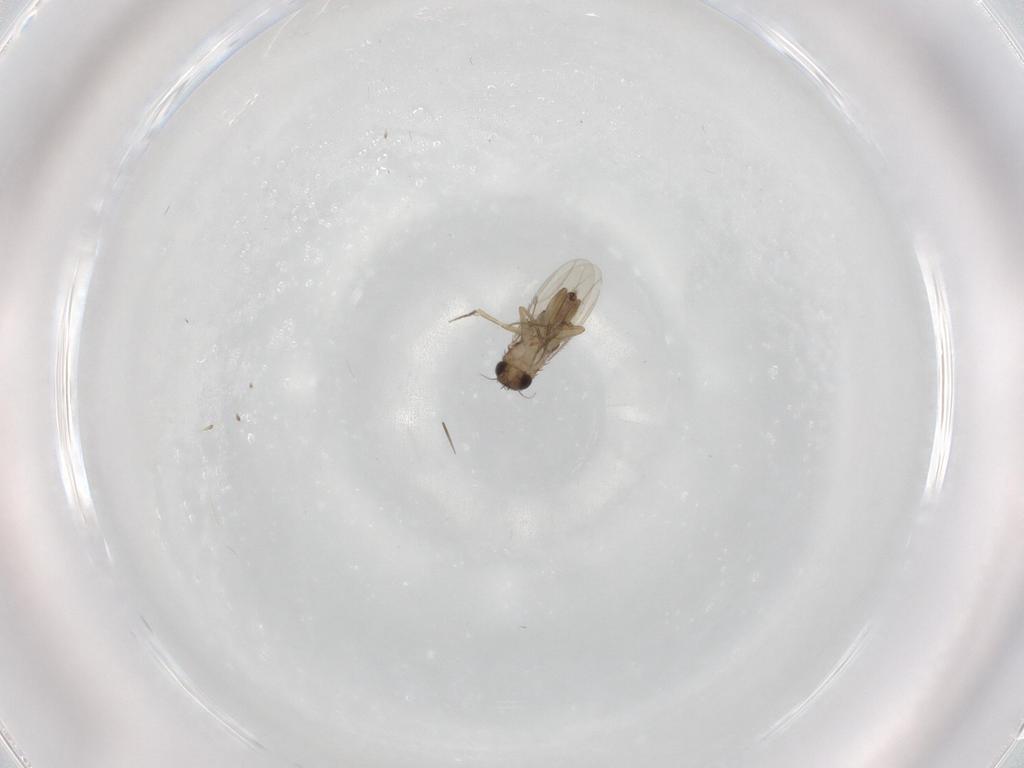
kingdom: Animalia
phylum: Arthropoda
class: Insecta
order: Diptera
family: Phoridae
